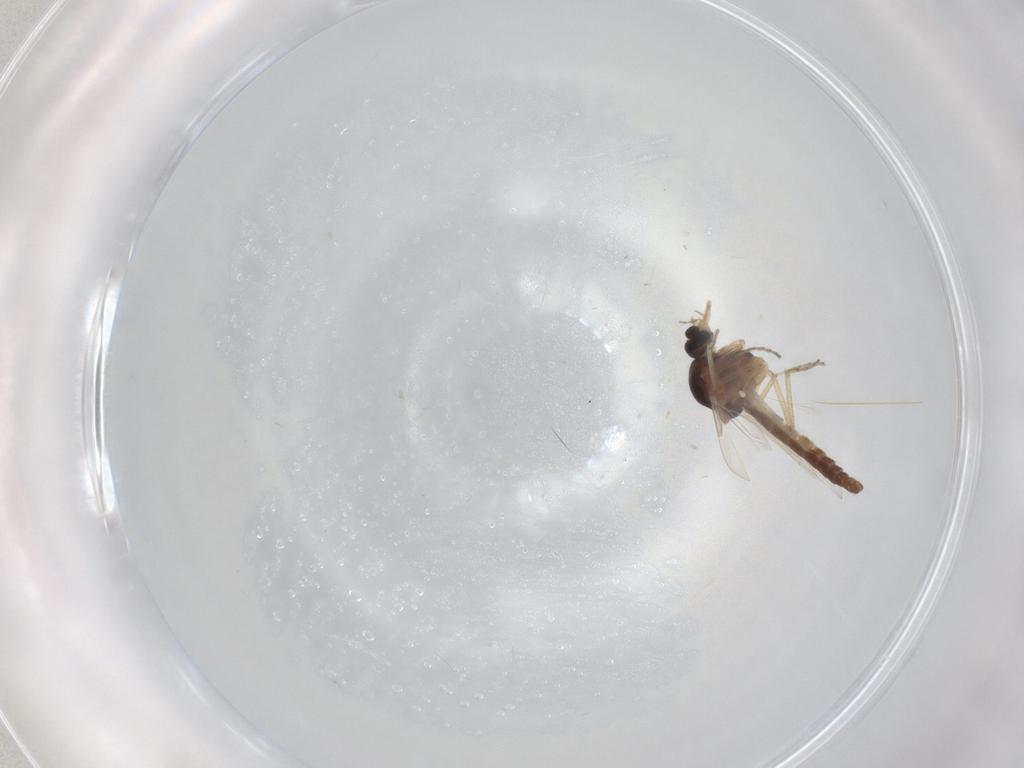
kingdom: Animalia
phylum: Arthropoda
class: Insecta
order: Diptera
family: Ceratopogonidae
